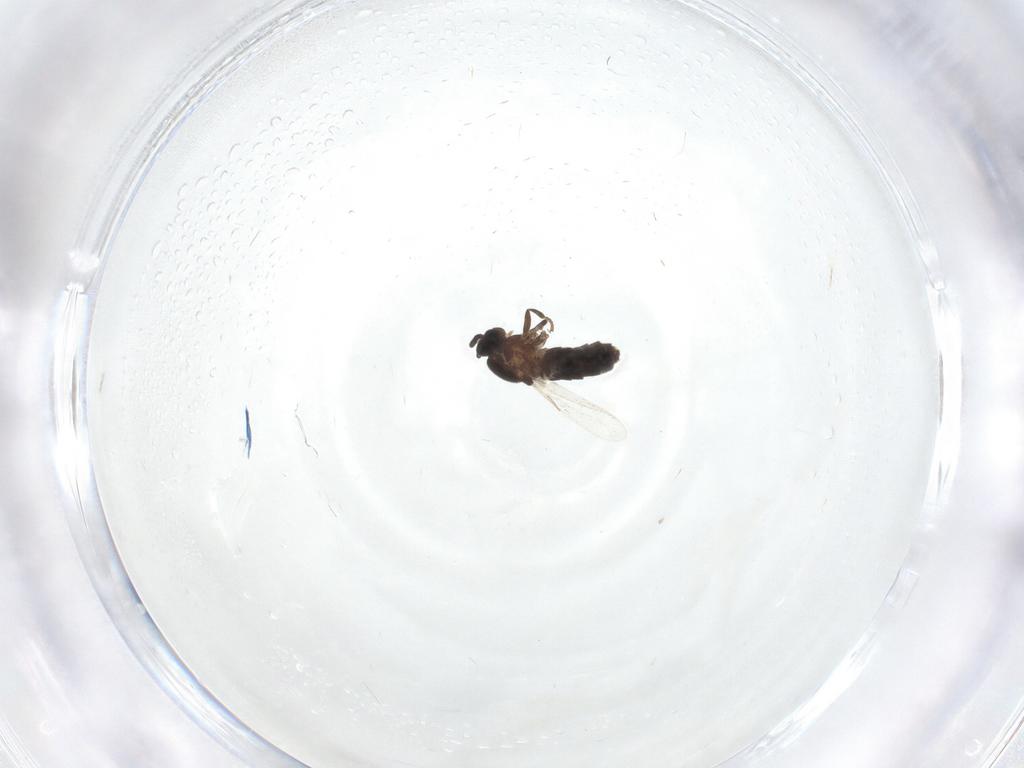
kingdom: Animalia
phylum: Arthropoda
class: Insecta
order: Diptera
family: Scatopsidae
